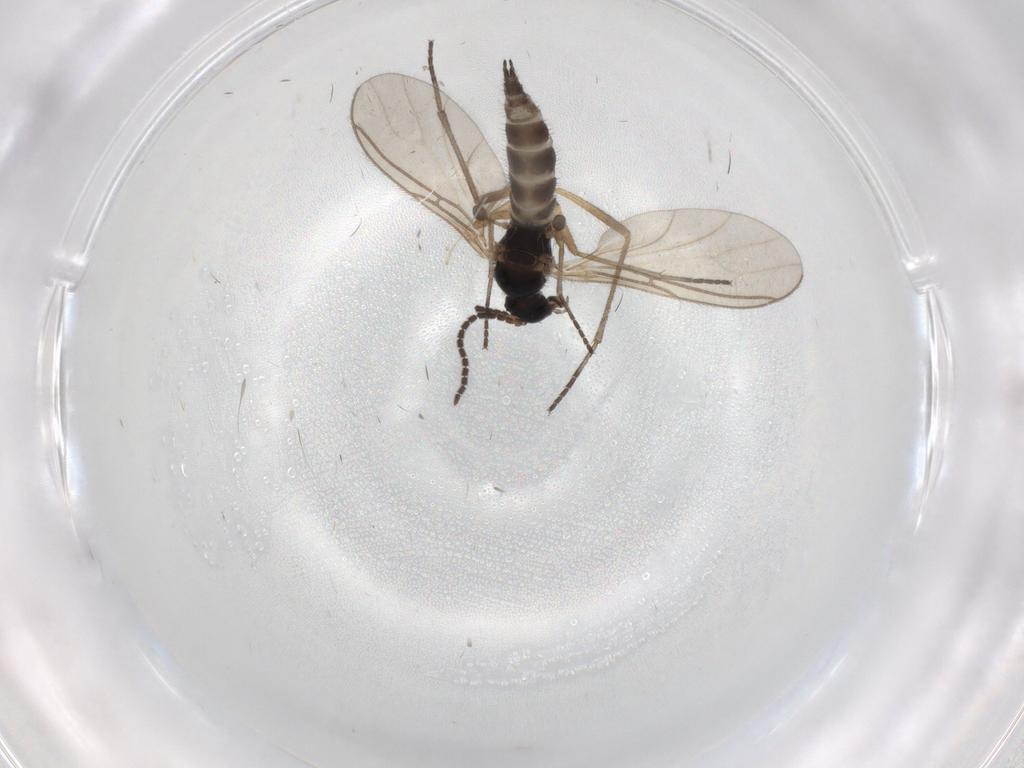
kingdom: Animalia
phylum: Arthropoda
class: Insecta
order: Diptera
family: Sciaridae
